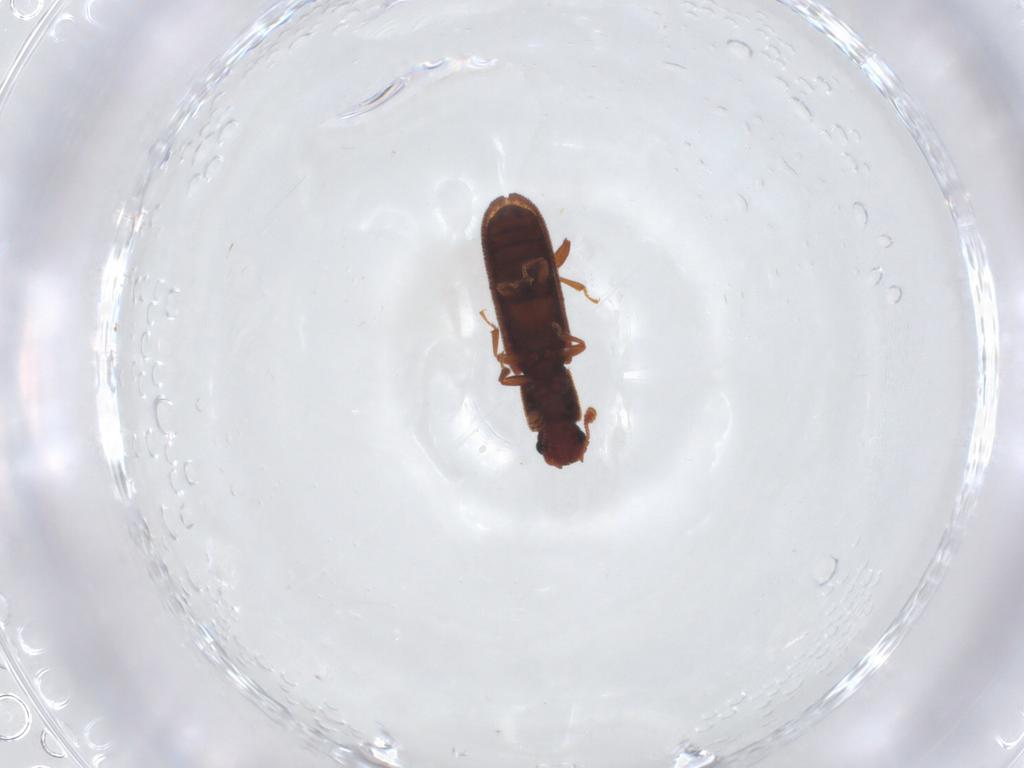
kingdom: Animalia
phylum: Arthropoda
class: Insecta
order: Coleoptera
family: Zopheridae
